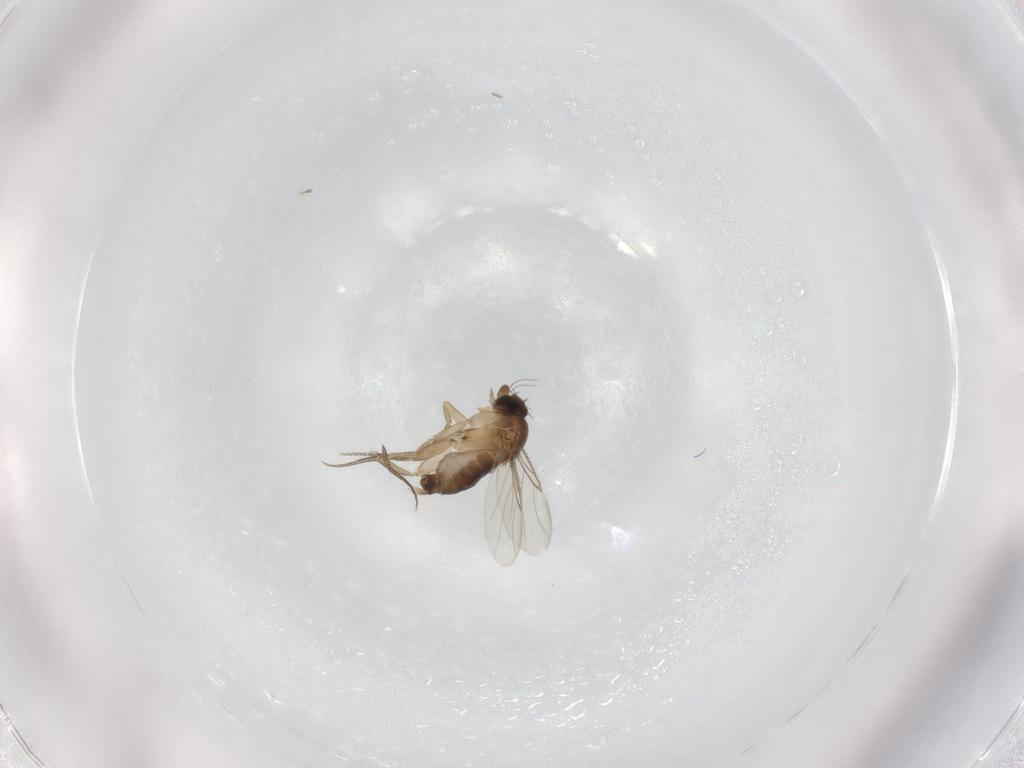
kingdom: Animalia
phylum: Arthropoda
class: Insecta
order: Diptera
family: Phoridae
